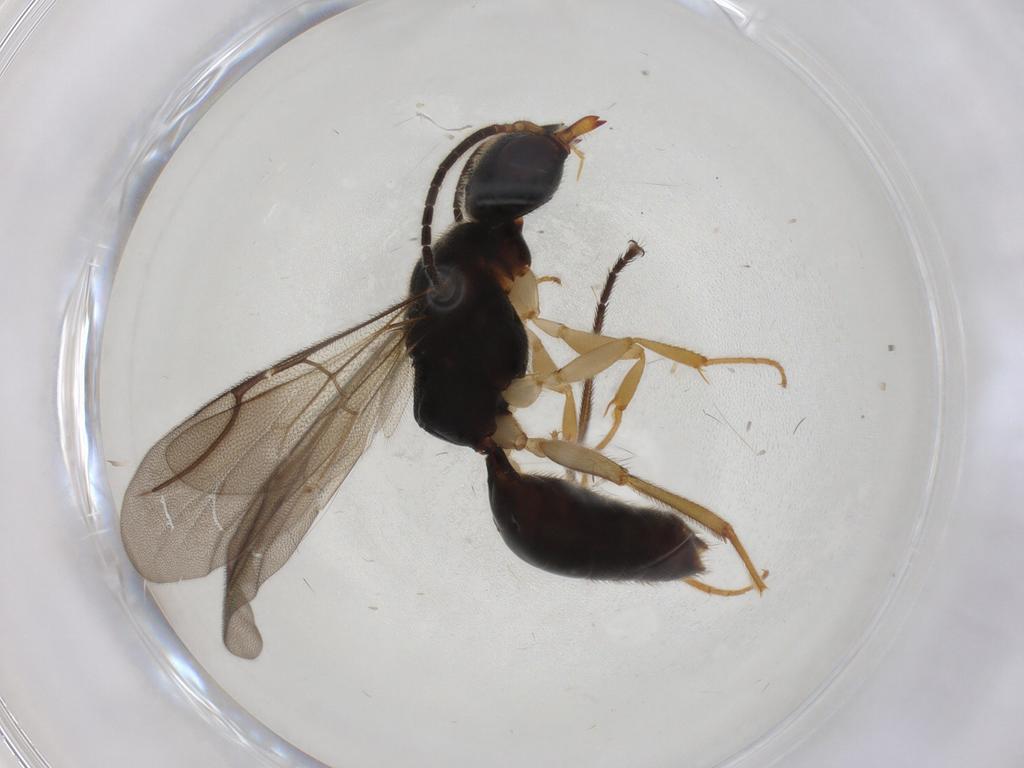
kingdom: Animalia
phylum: Arthropoda
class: Insecta
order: Hymenoptera
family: Bethylidae
